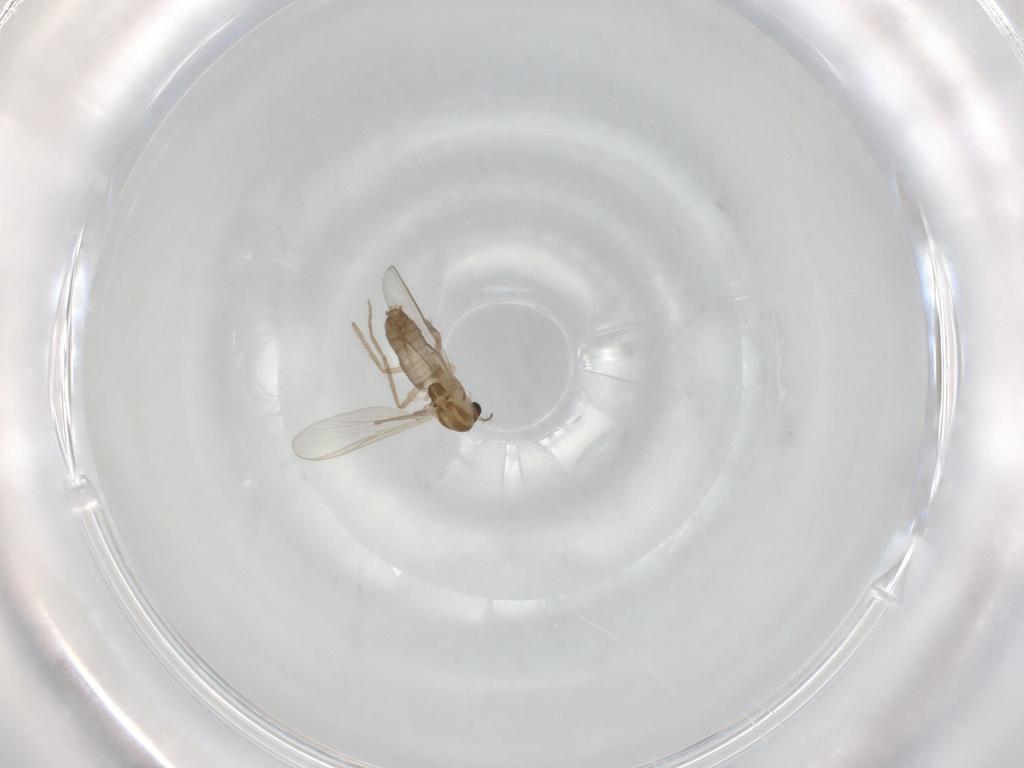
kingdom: Animalia
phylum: Arthropoda
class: Insecta
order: Diptera
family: Chironomidae
